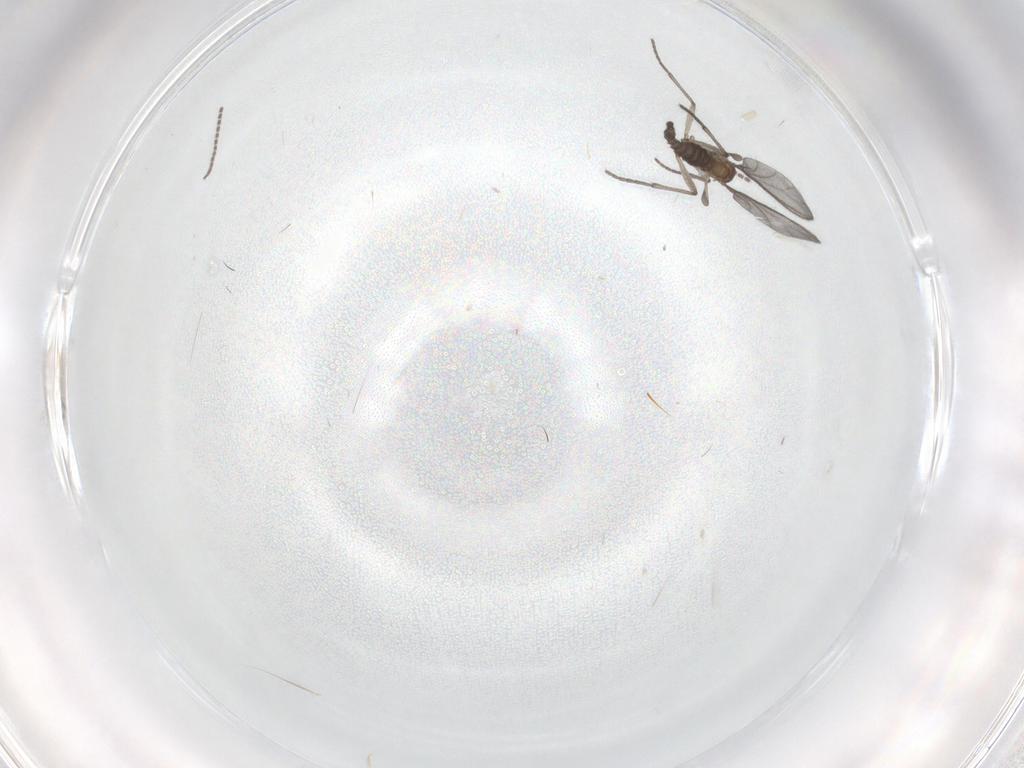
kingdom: Animalia
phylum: Arthropoda
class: Insecta
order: Diptera
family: Sciaridae
